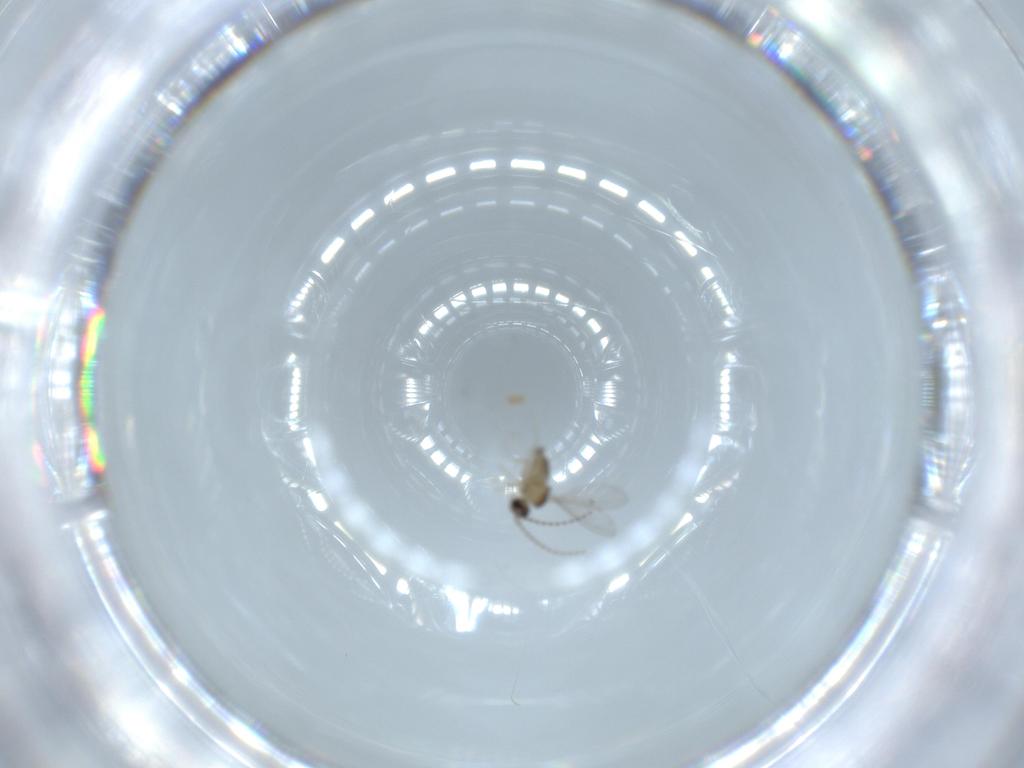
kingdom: Animalia
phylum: Arthropoda
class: Insecta
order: Diptera
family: Cecidomyiidae
